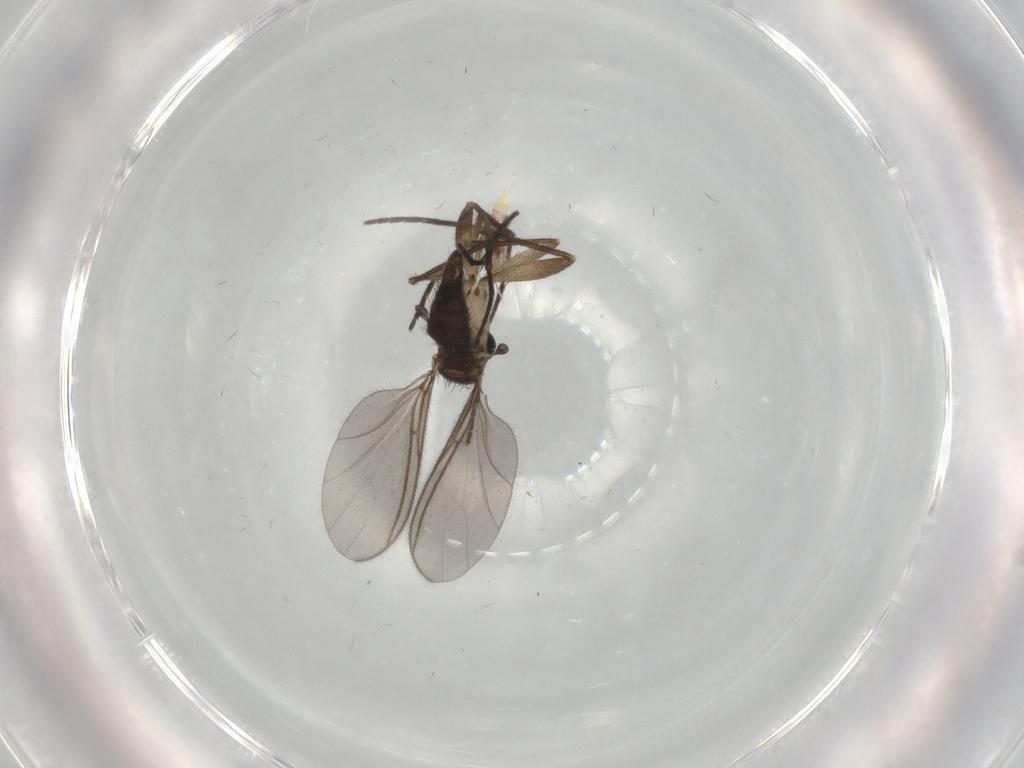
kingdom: Animalia
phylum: Arthropoda
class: Insecta
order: Diptera
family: Sciaridae
